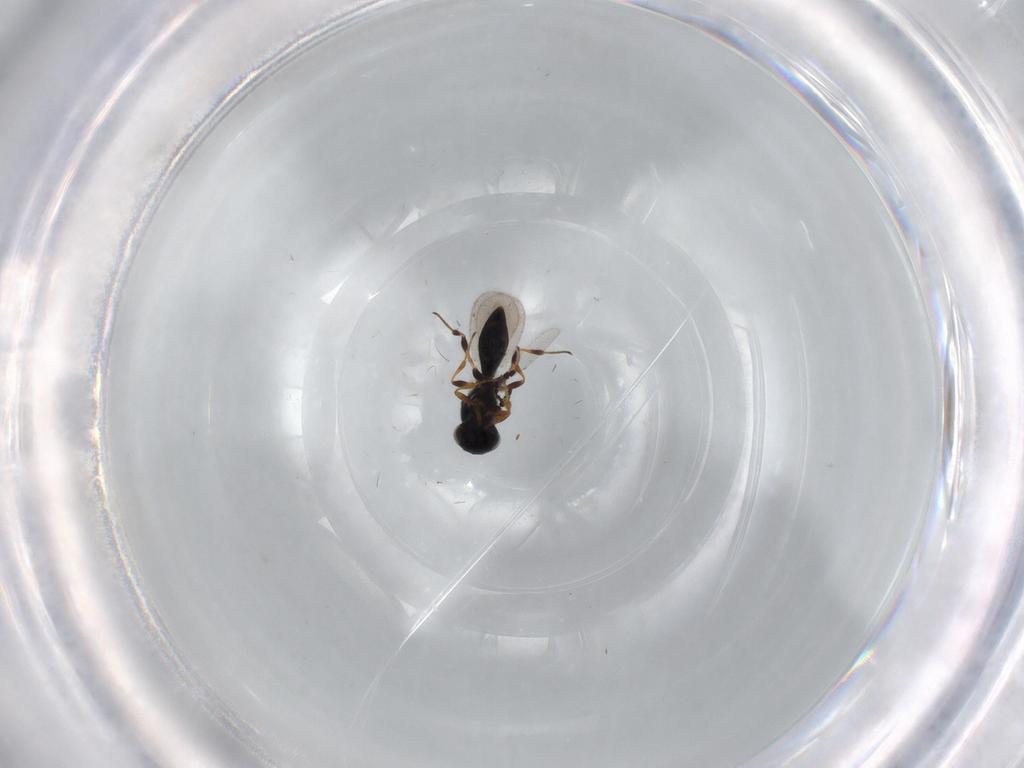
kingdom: Animalia
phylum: Arthropoda
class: Insecta
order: Hymenoptera
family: Platygastridae
